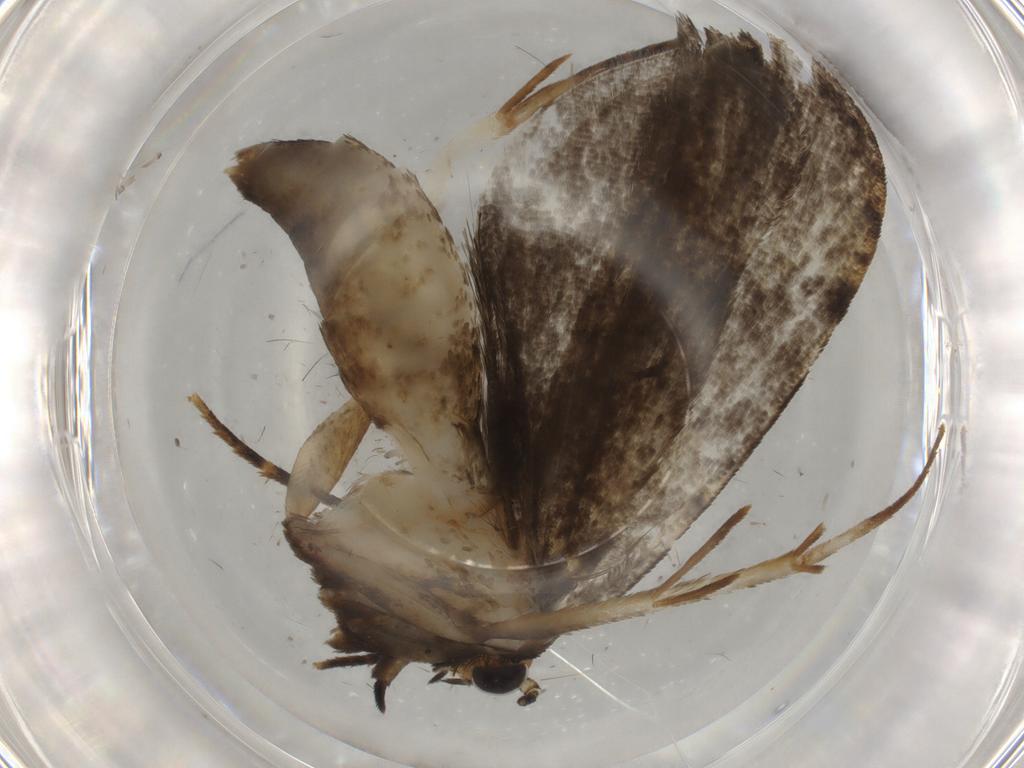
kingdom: Animalia
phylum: Arthropoda
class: Insecta
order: Lepidoptera
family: Tineidae
